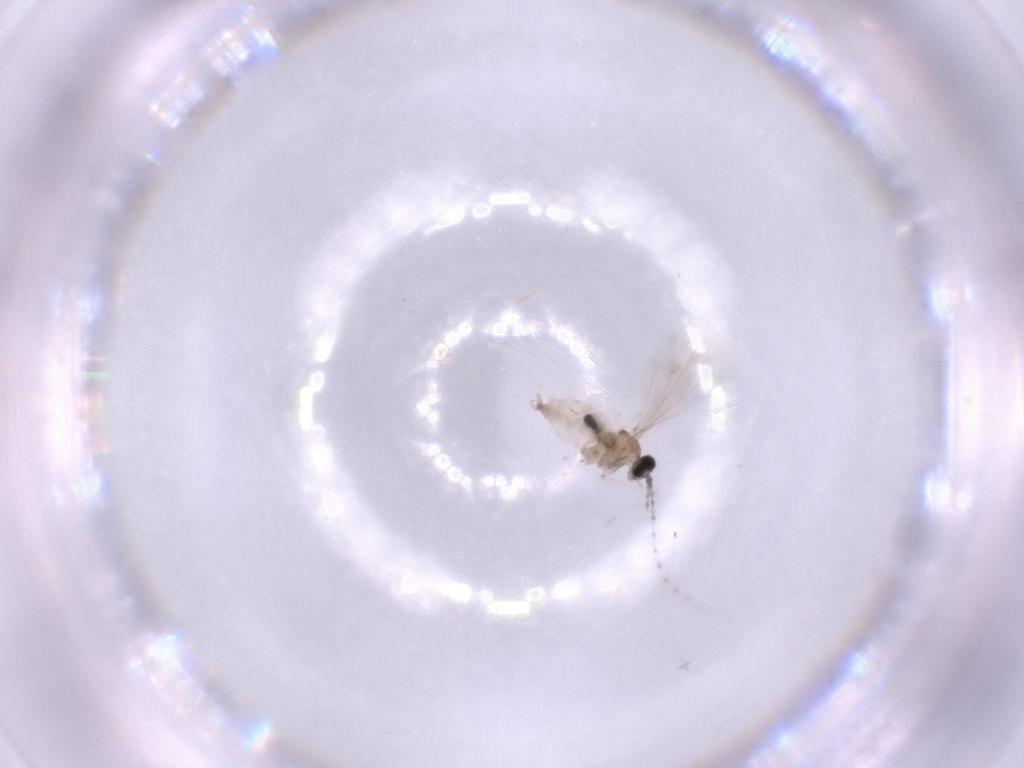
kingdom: Animalia
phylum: Arthropoda
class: Insecta
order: Diptera
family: Cecidomyiidae
